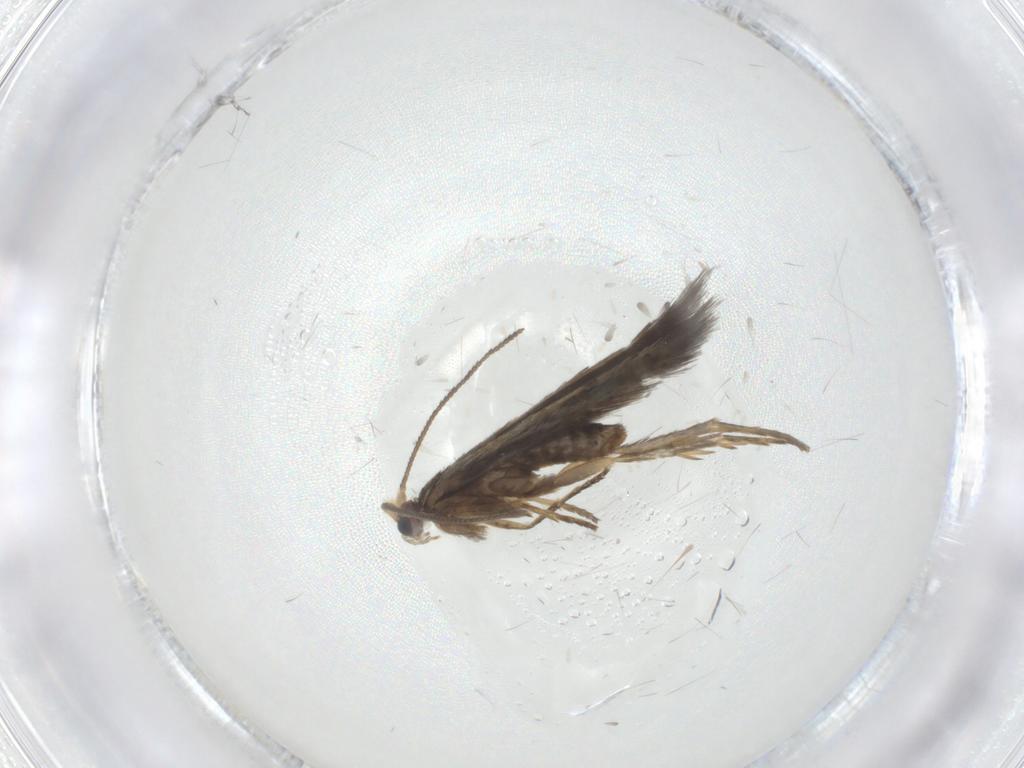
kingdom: Animalia
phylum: Arthropoda
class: Insecta
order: Lepidoptera
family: Nepticulidae
